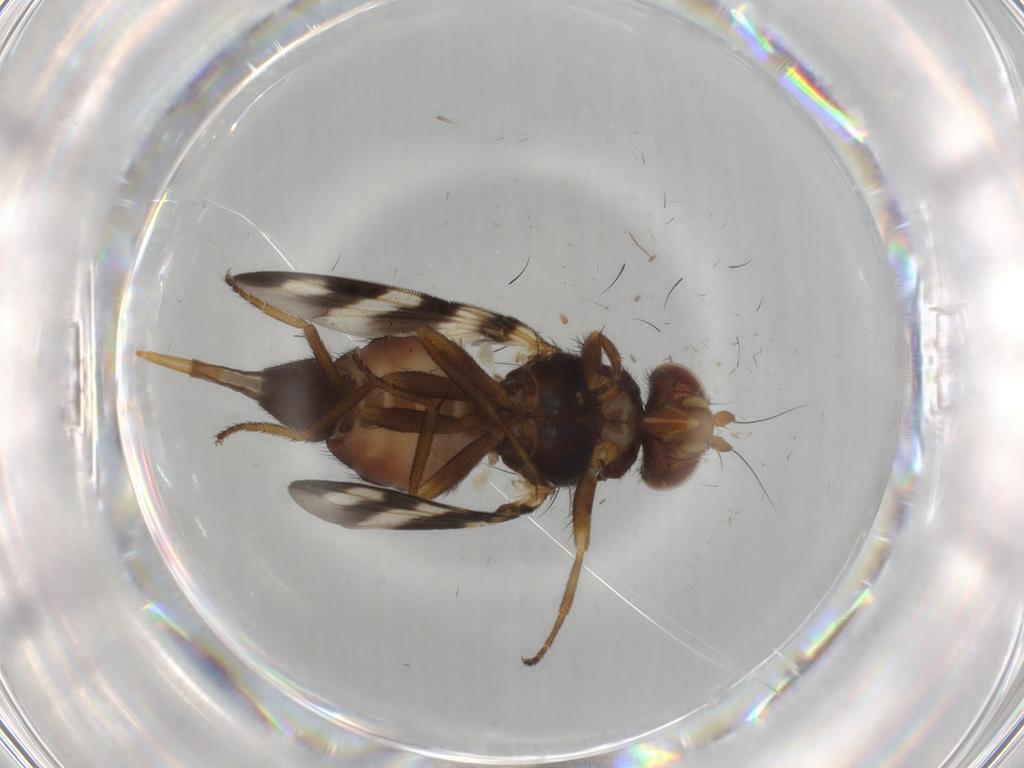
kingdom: Animalia
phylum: Arthropoda
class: Insecta
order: Diptera
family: Ulidiidae
